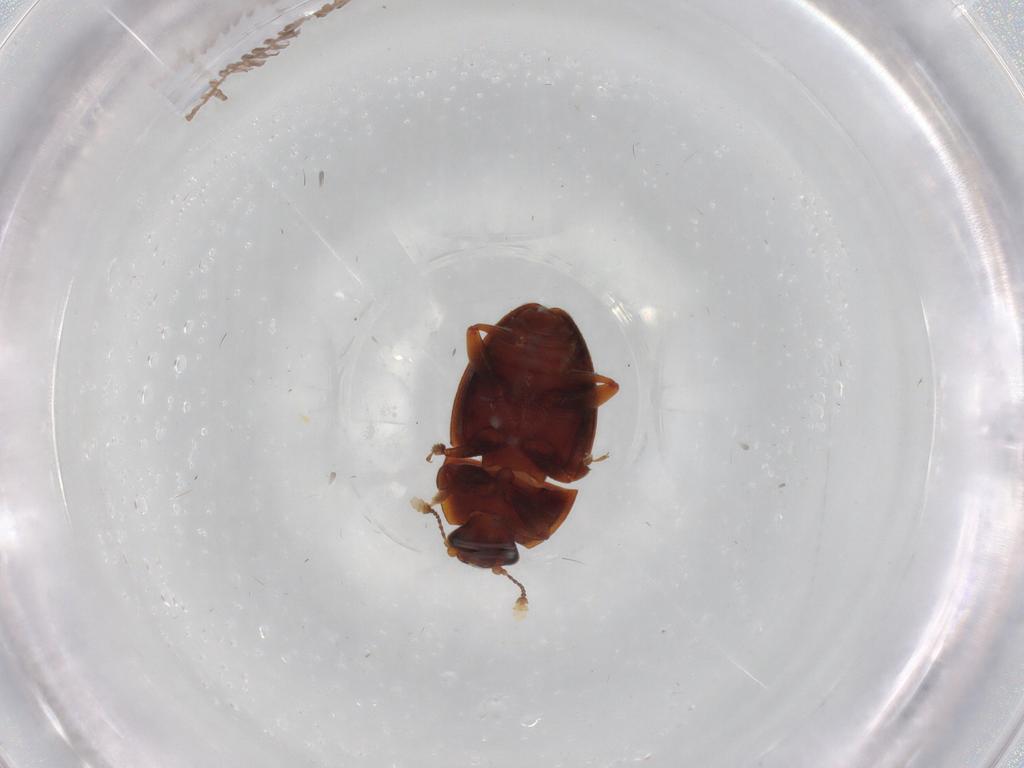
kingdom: Animalia
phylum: Arthropoda
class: Insecta
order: Coleoptera
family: Nitidulidae
